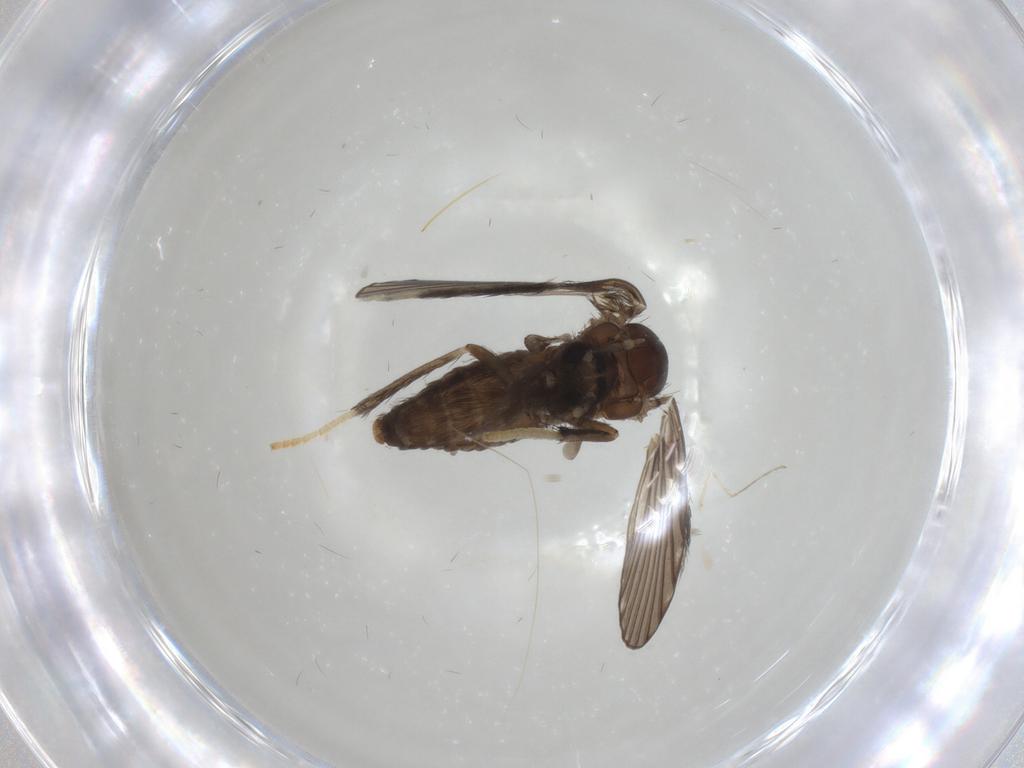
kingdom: Animalia
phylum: Arthropoda
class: Insecta
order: Diptera
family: Psychodidae
